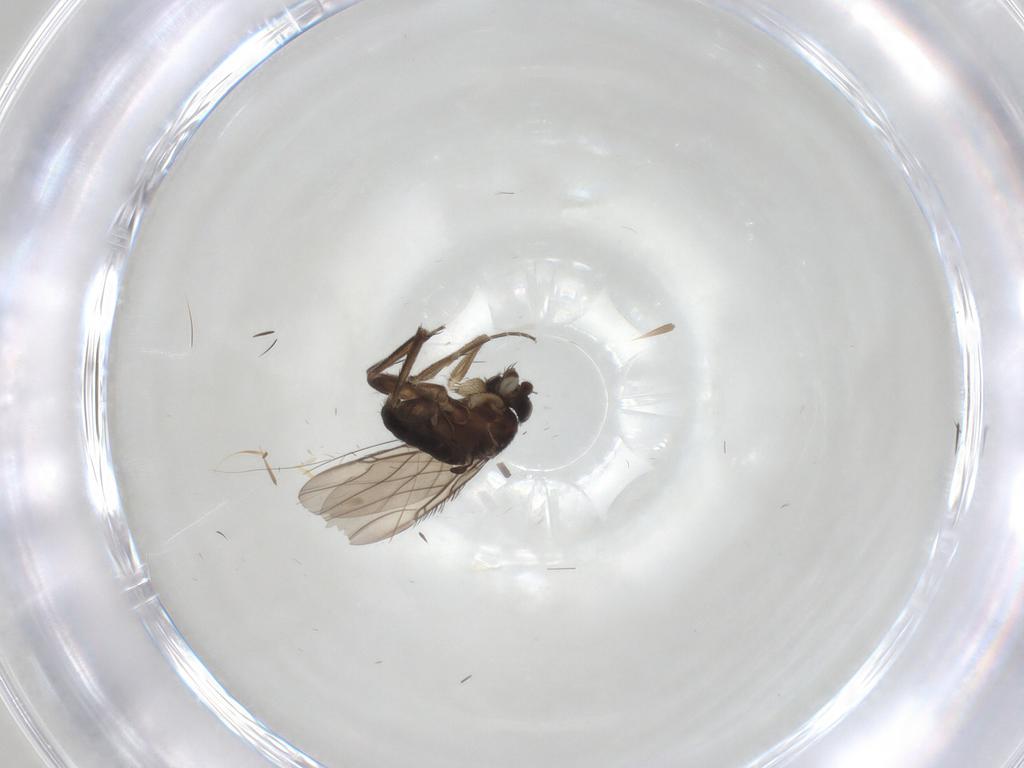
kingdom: Animalia
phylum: Arthropoda
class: Insecta
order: Diptera
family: Phoridae
